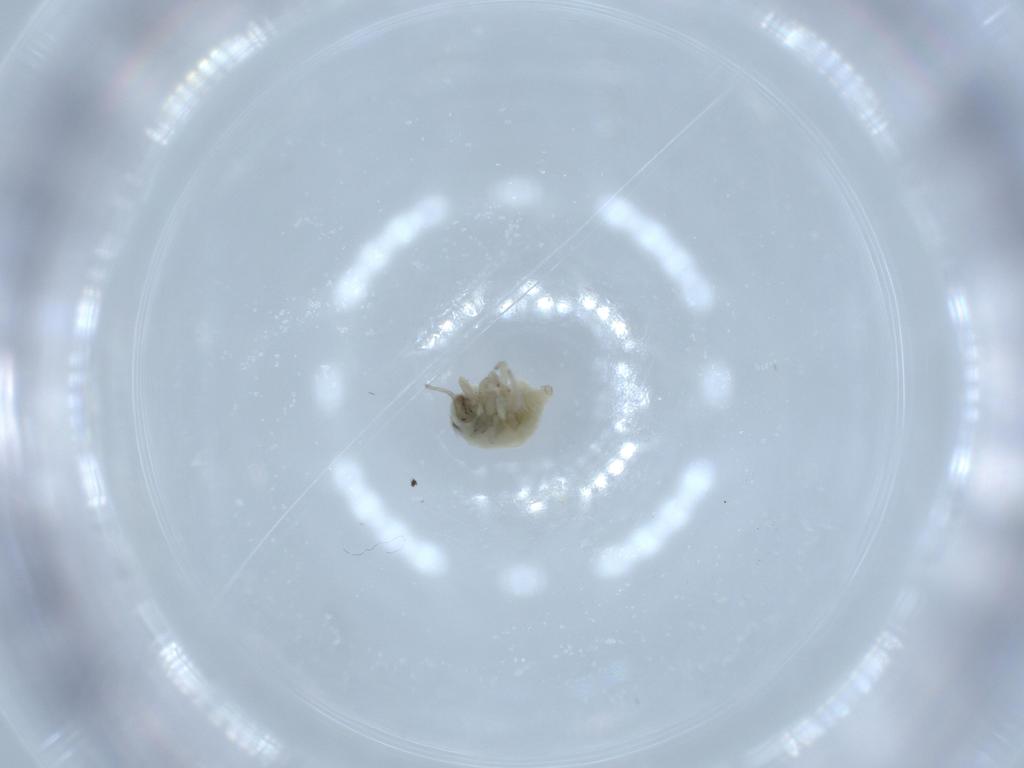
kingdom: Animalia
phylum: Arthropoda
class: Insecta
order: Neuroptera
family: Coniopterygidae
